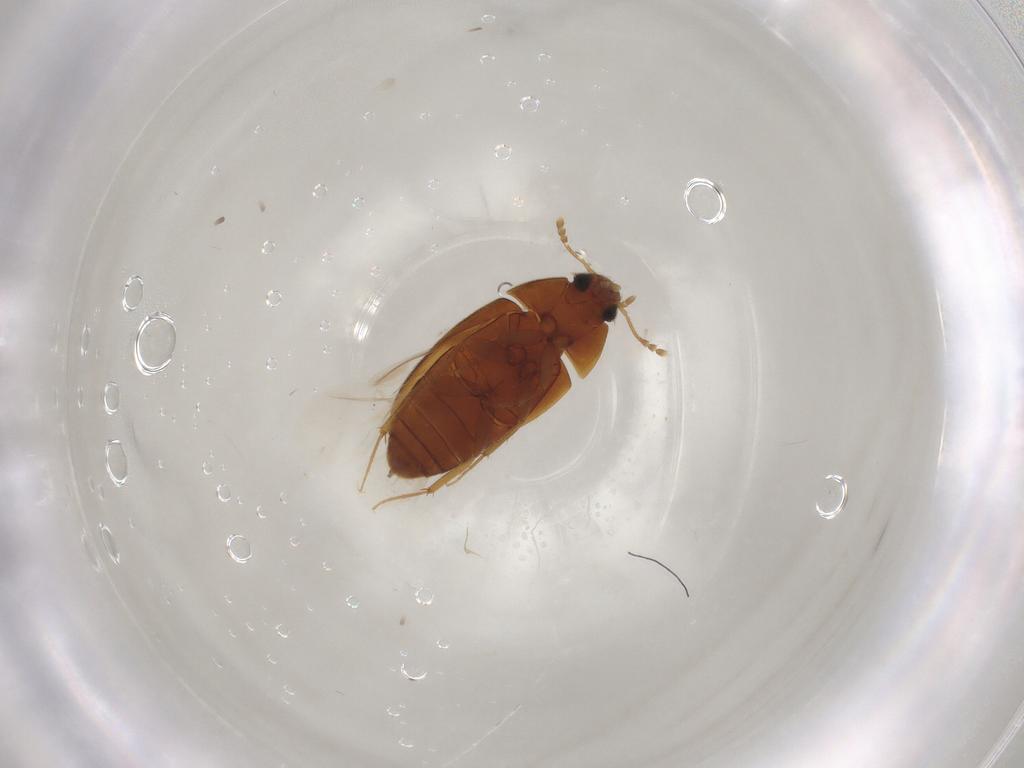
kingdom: Animalia
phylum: Arthropoda
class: Insecta
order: Coleoptera
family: Mycetophagidae
